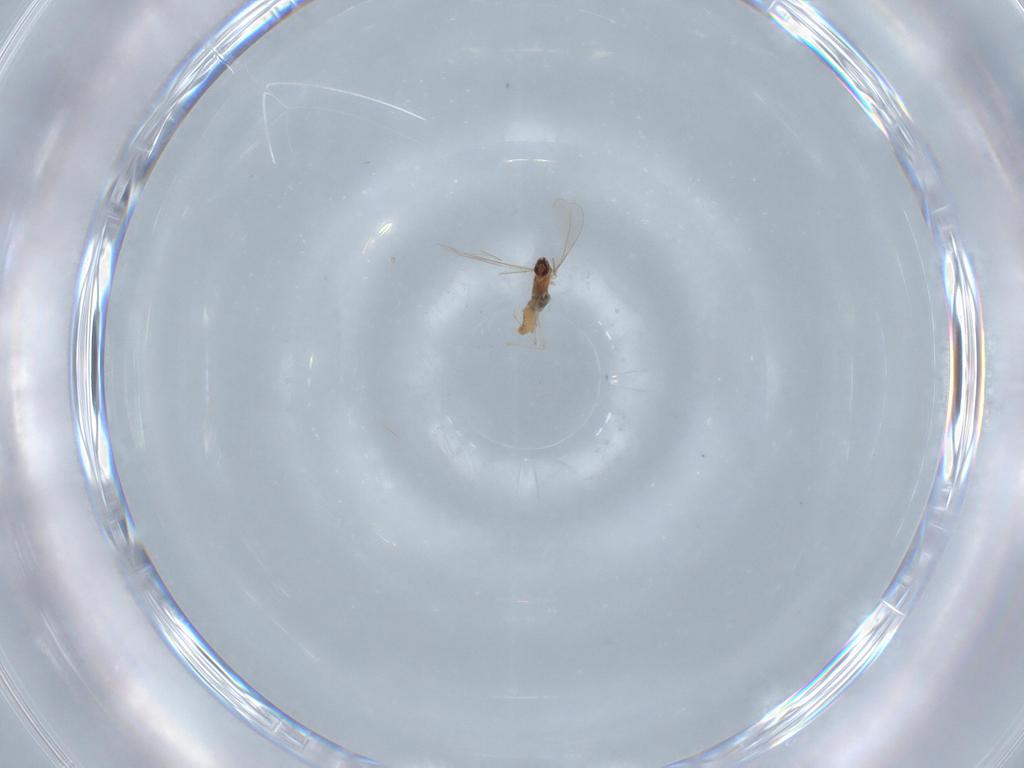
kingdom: Animalia
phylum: Arthropoda
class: Insecta
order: Diptera
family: Cecidomyiidae
